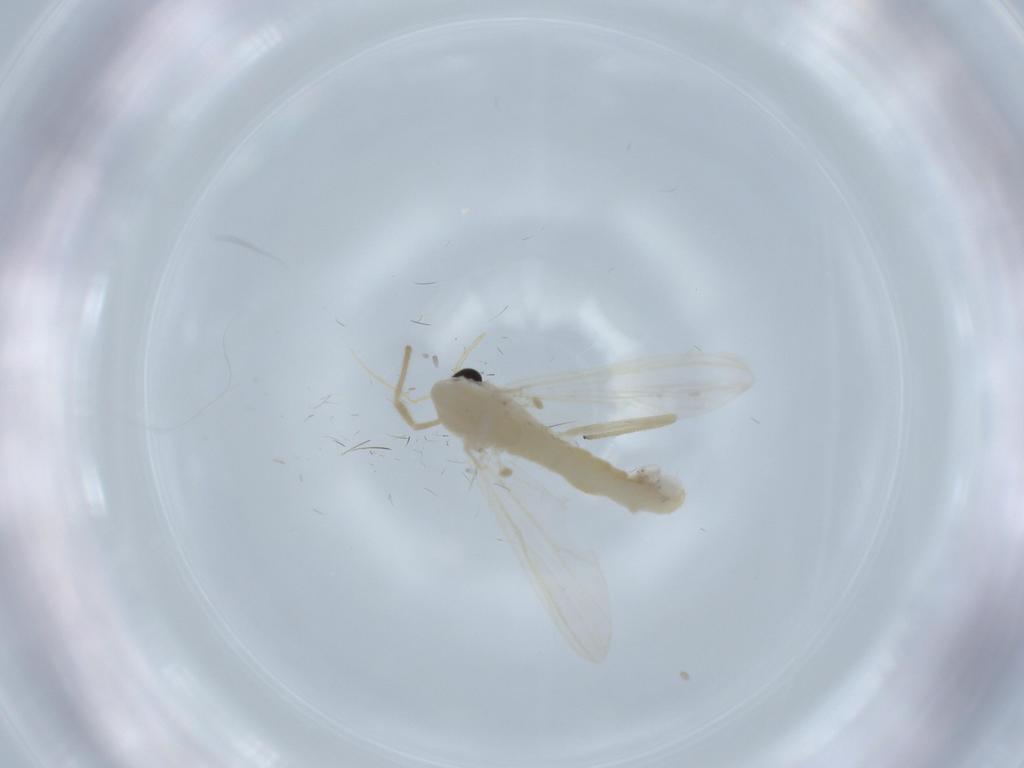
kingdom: Animalia
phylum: Arthropoda
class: Insecta
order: Diptera
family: Chironomidae
